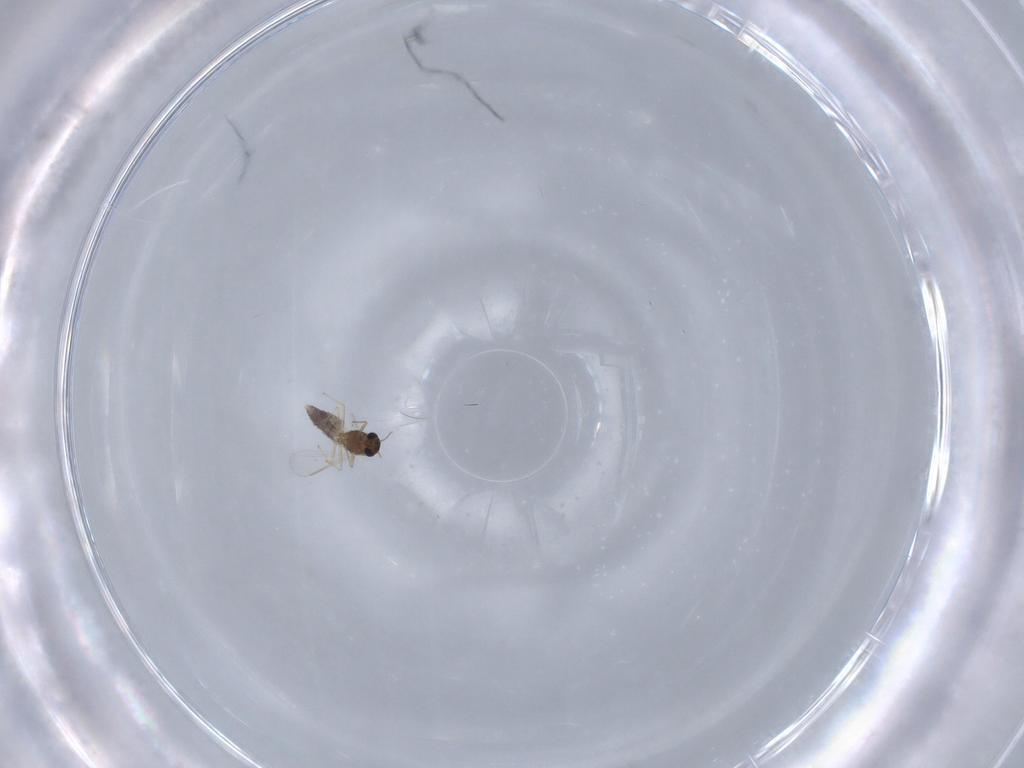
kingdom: Animalia
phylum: Arthropoda
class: Insecta
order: Diptera
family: Chironomidae
